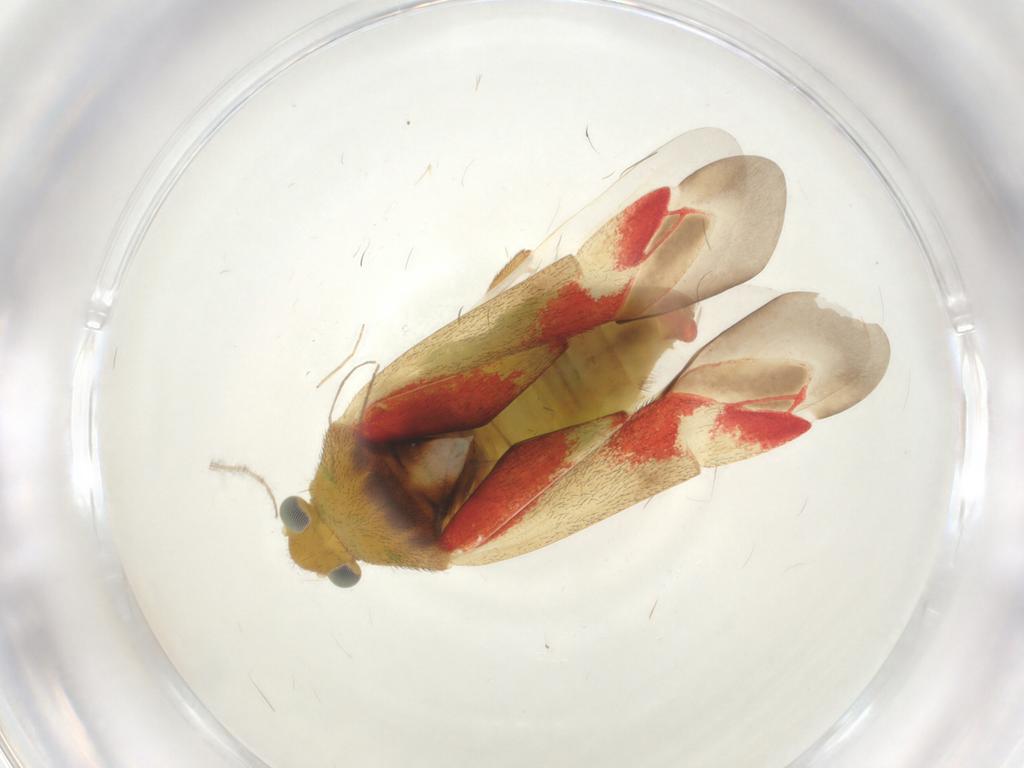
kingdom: Animalia
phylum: Arthropoda
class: Insecta
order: Hemiptera
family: Miridae
